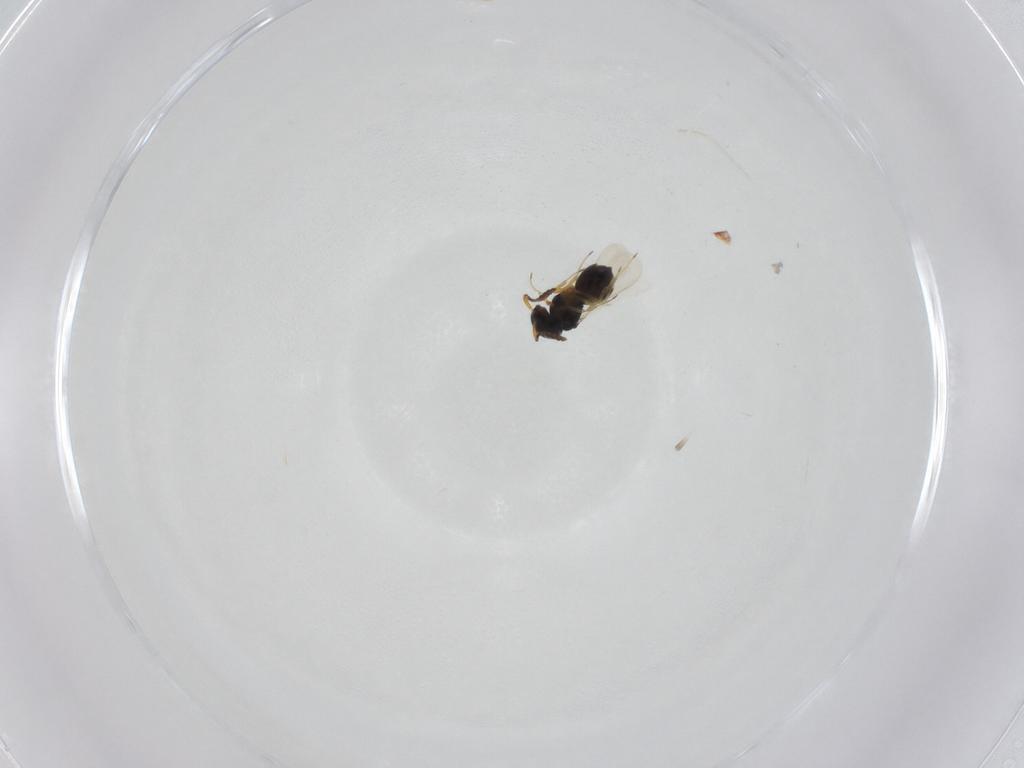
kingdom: Animalia
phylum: Arthropoda
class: Insecta
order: Hymenoptera
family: Scelionidae
